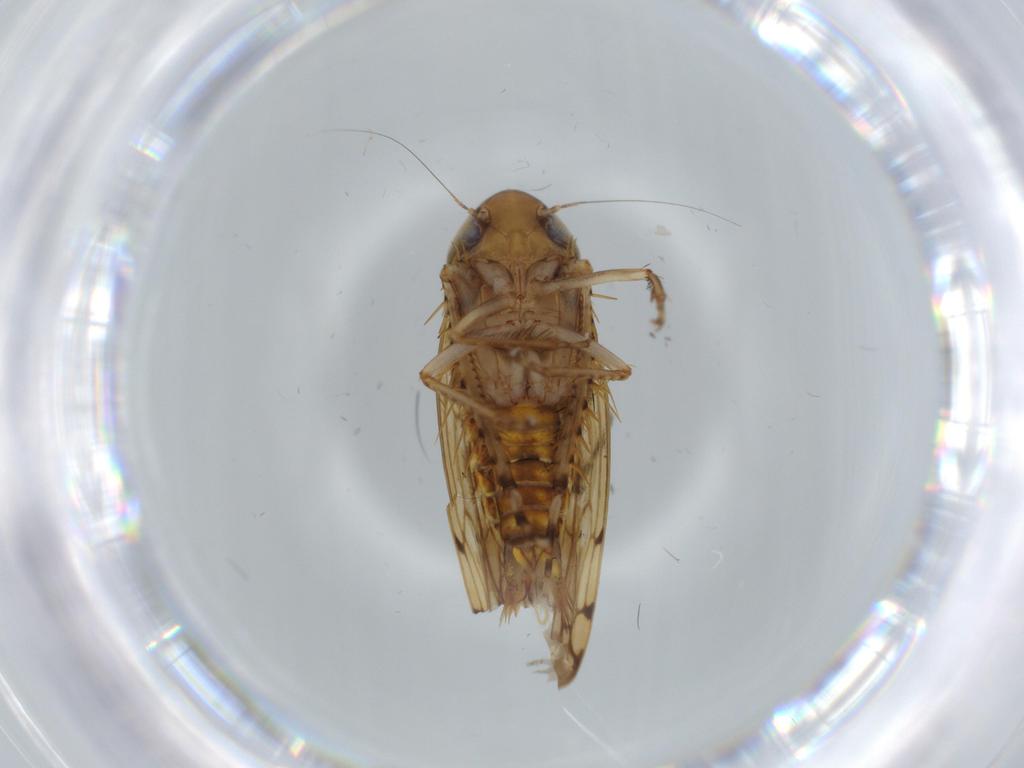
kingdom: Animalia
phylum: Arthropoda
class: Insecta
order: Hemiptera
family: Cicadellidae
